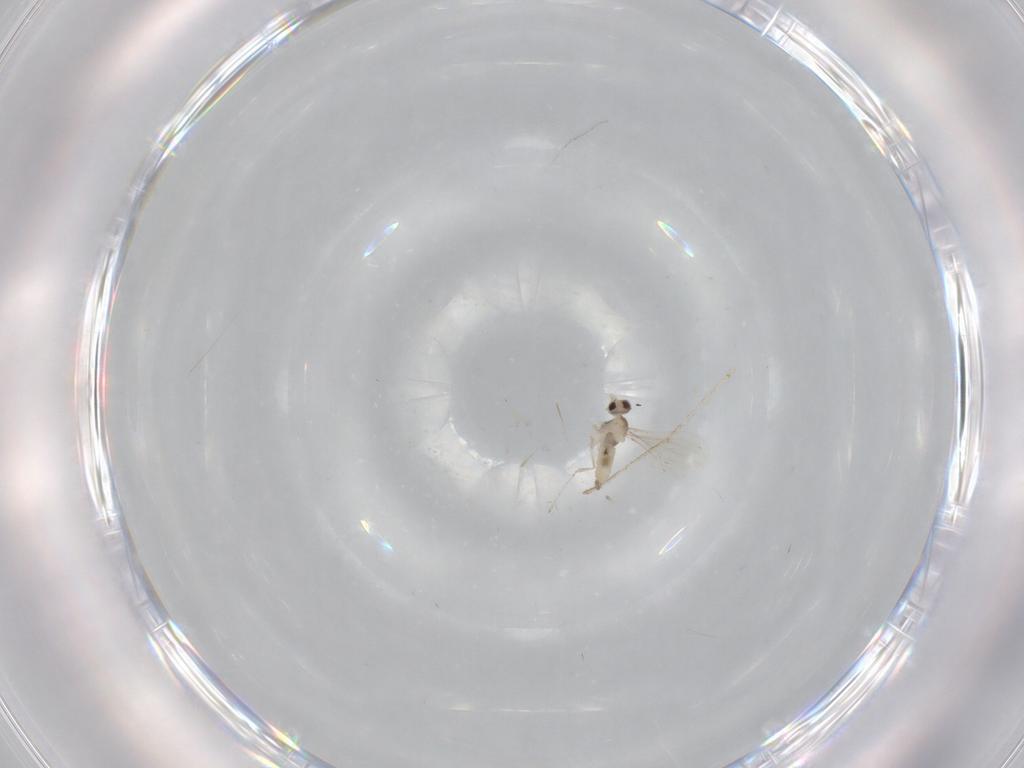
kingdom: Animalia
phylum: Arthropoda
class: Insecta
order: Diptera
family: Cecidomyiidae
